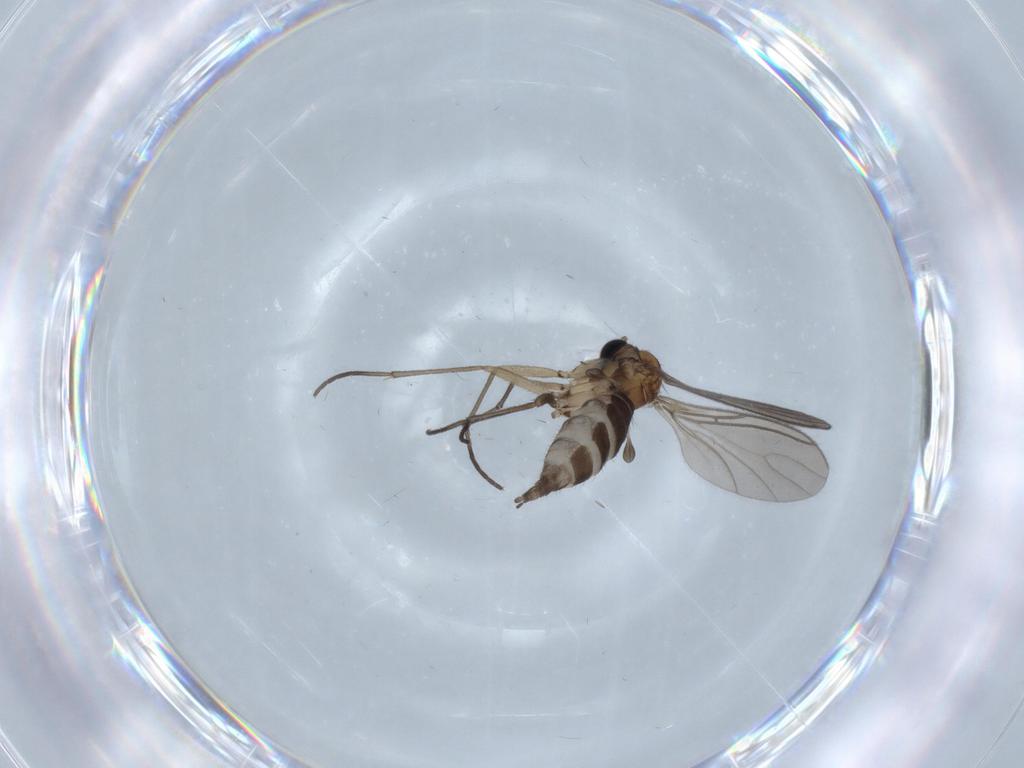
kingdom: Animalia
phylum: Arthropoda
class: Insecta
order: Diptera
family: Sciaridae
